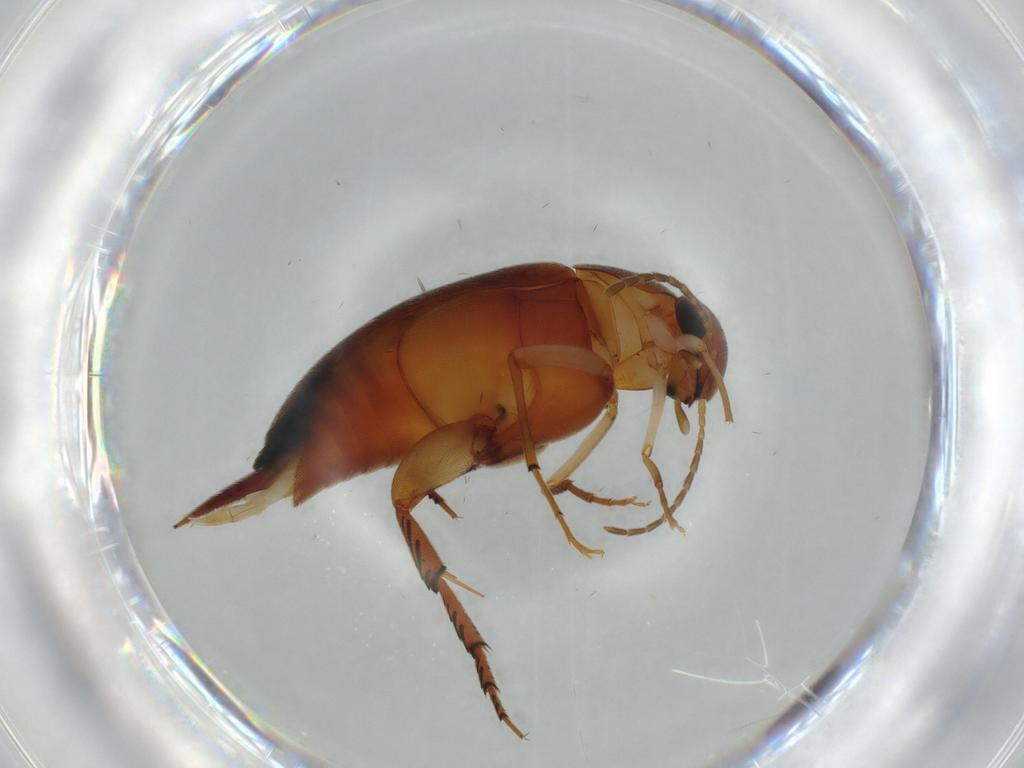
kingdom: Animalia
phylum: Arthropoda
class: Insecta
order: Coleoptera
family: Mordellidae
